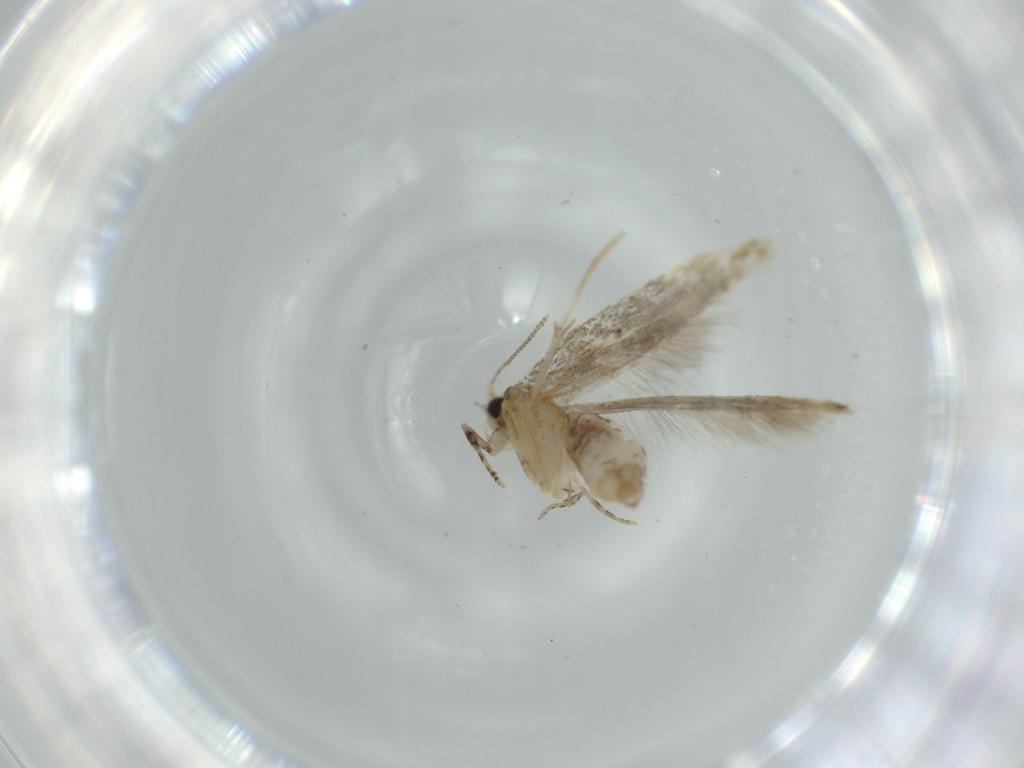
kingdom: Animalia
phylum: Arthropoda
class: Insecta
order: Lepidoptera
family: Tineidae
